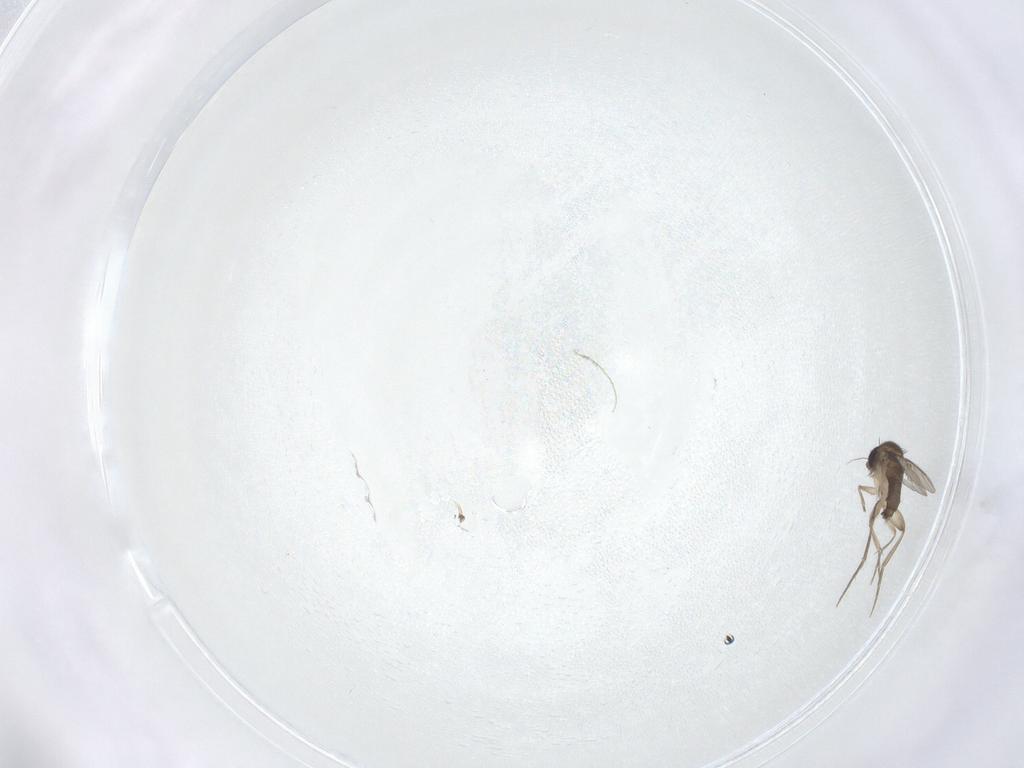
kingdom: Animalia
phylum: Arthropoda
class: Insecta
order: Diptera
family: Phoridae
